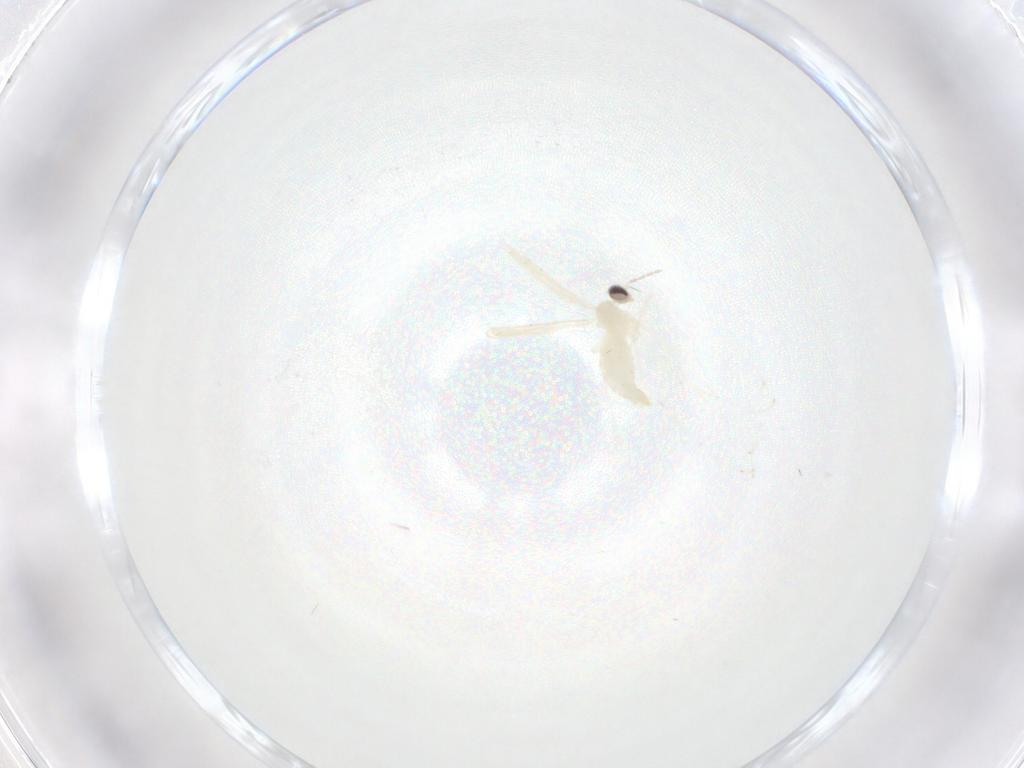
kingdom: Animalia
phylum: Arthropoda
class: Insecta
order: Diptera
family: Cecidomyiidae
